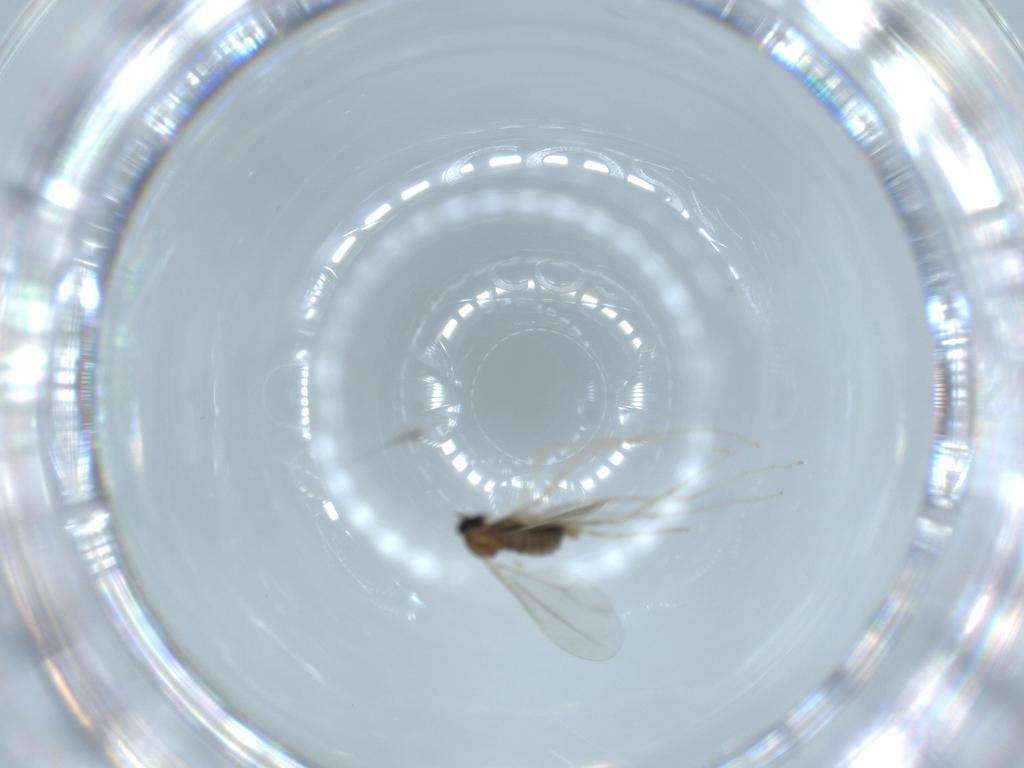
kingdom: Animalia
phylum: Arthropoda
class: Insecta
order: Diptera
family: Cecidomyiidae
